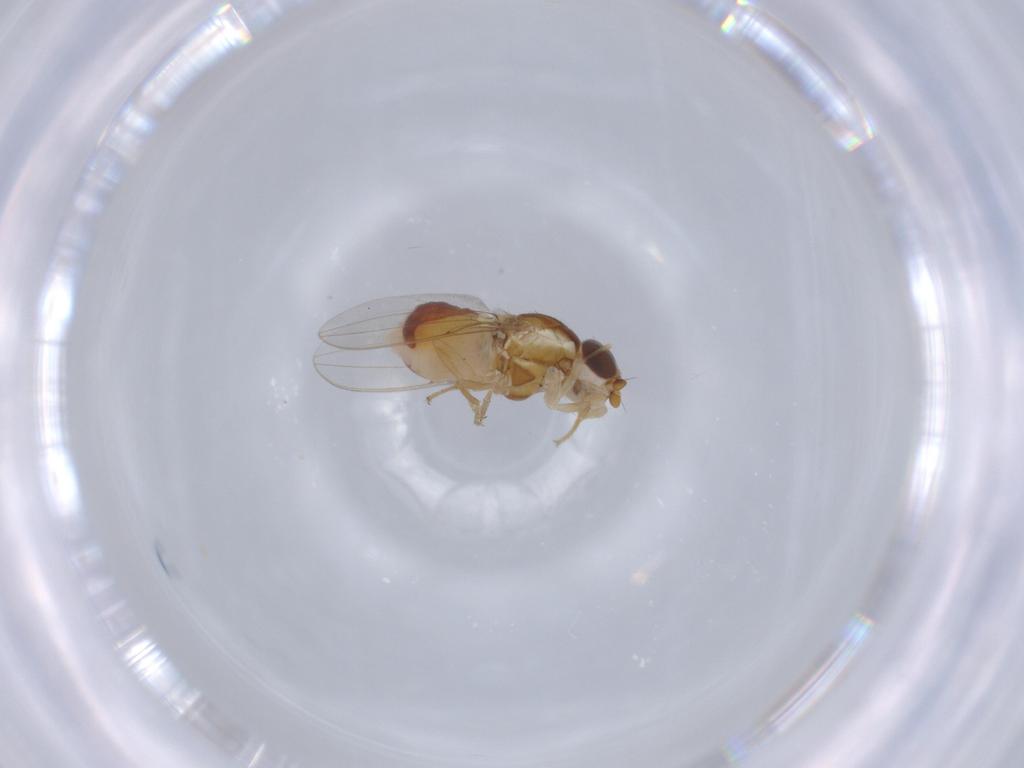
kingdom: Animalia
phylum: Arthropoda
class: Insecta
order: Diptera
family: Chloropidae
